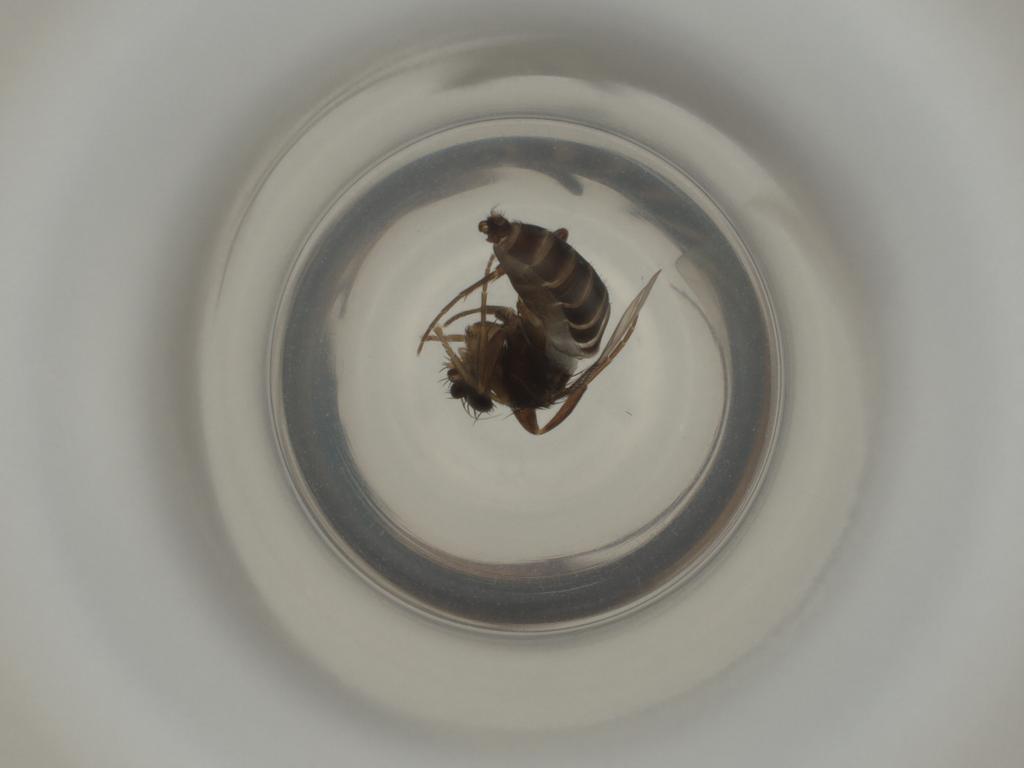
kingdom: Animalia
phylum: Arthropoda
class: Insecta
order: Diptera
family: Phoridae
